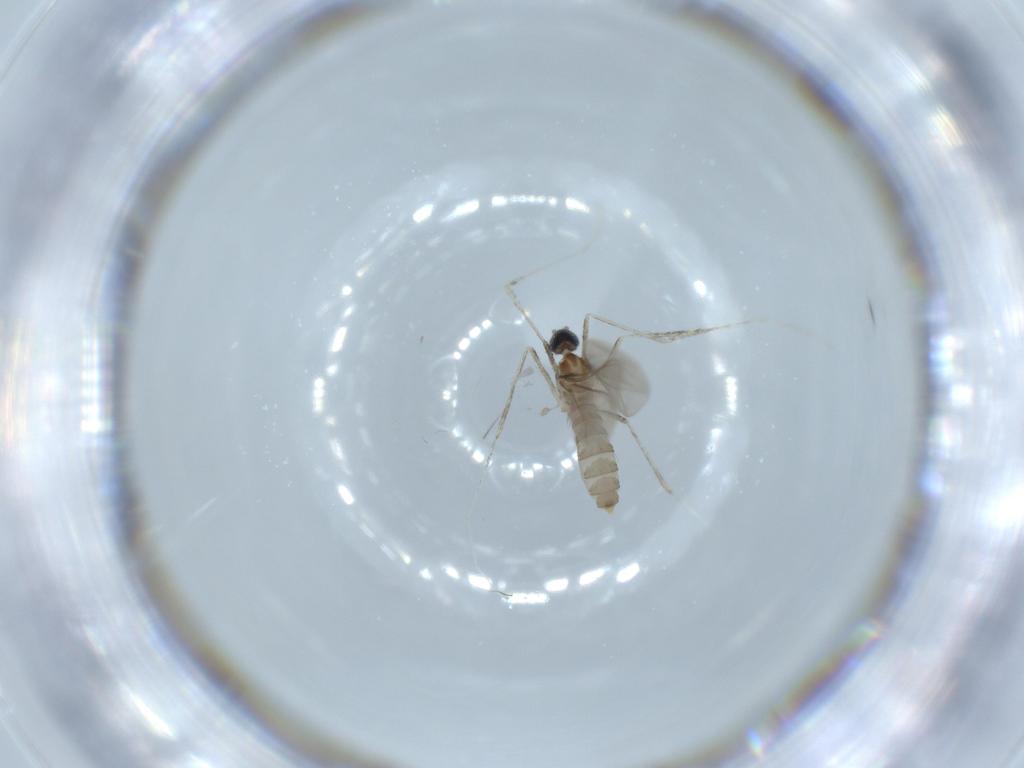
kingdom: Animalia
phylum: Arthropoda
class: Insecta
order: Diptera
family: Cecidomyiidae
